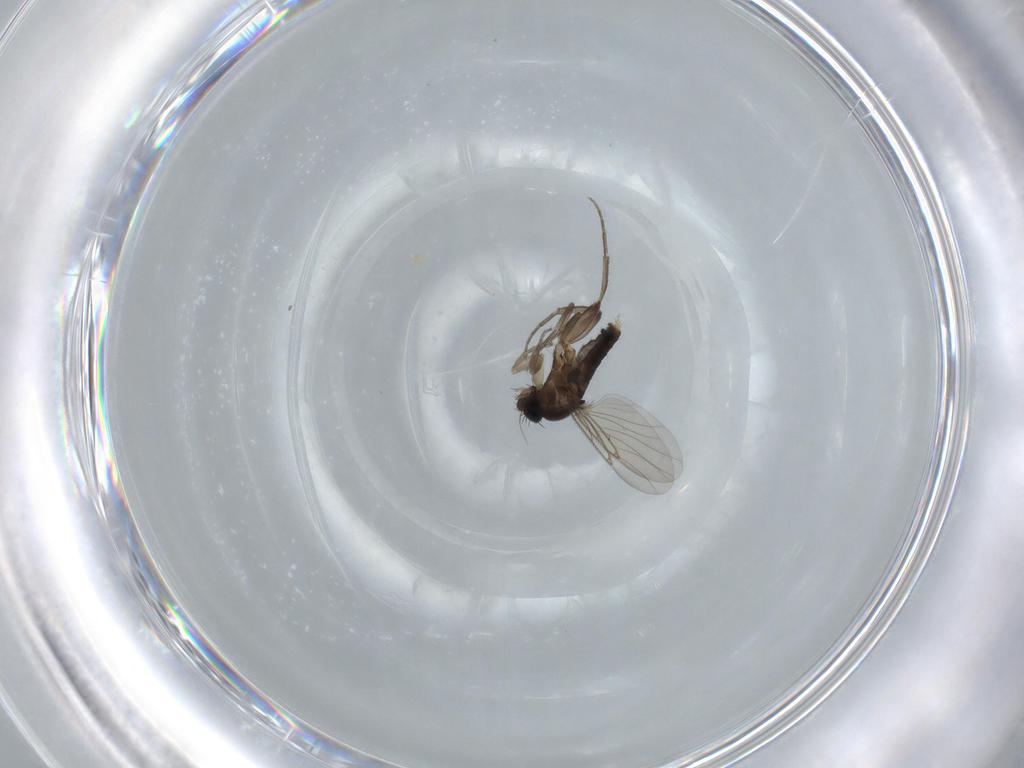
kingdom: Animalia
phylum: Arthropoda
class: Insecta
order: Diptera
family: Phoridae
